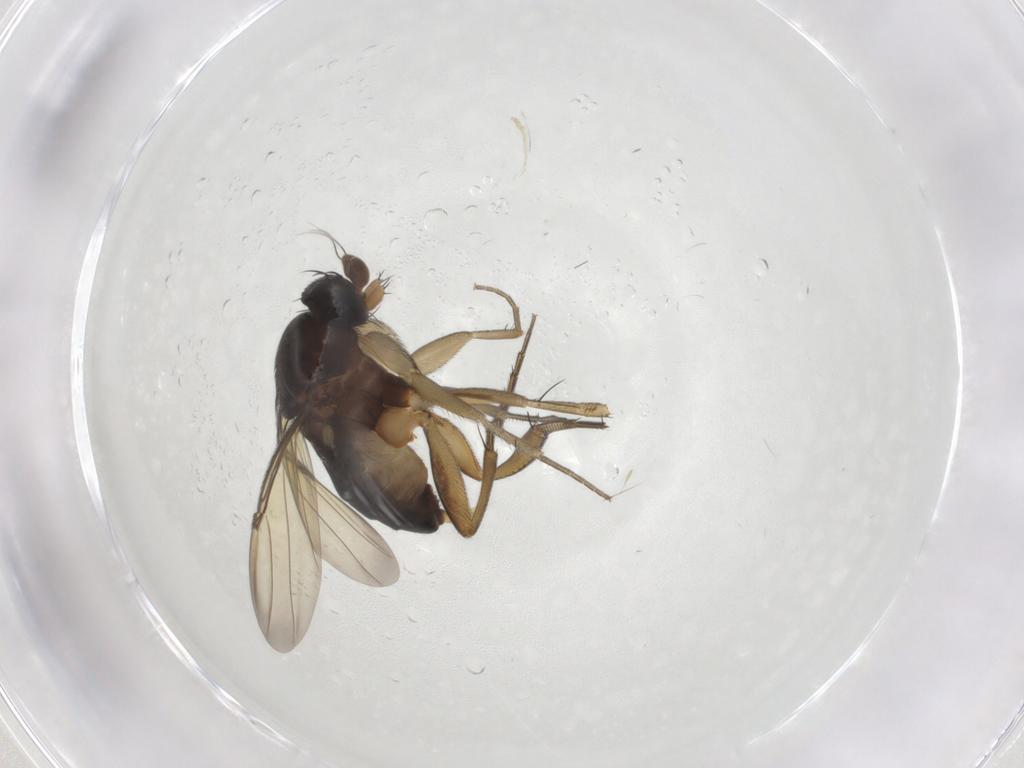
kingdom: Animalia
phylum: Arthropoda
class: Insecta
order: Diptera
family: Phoridae
